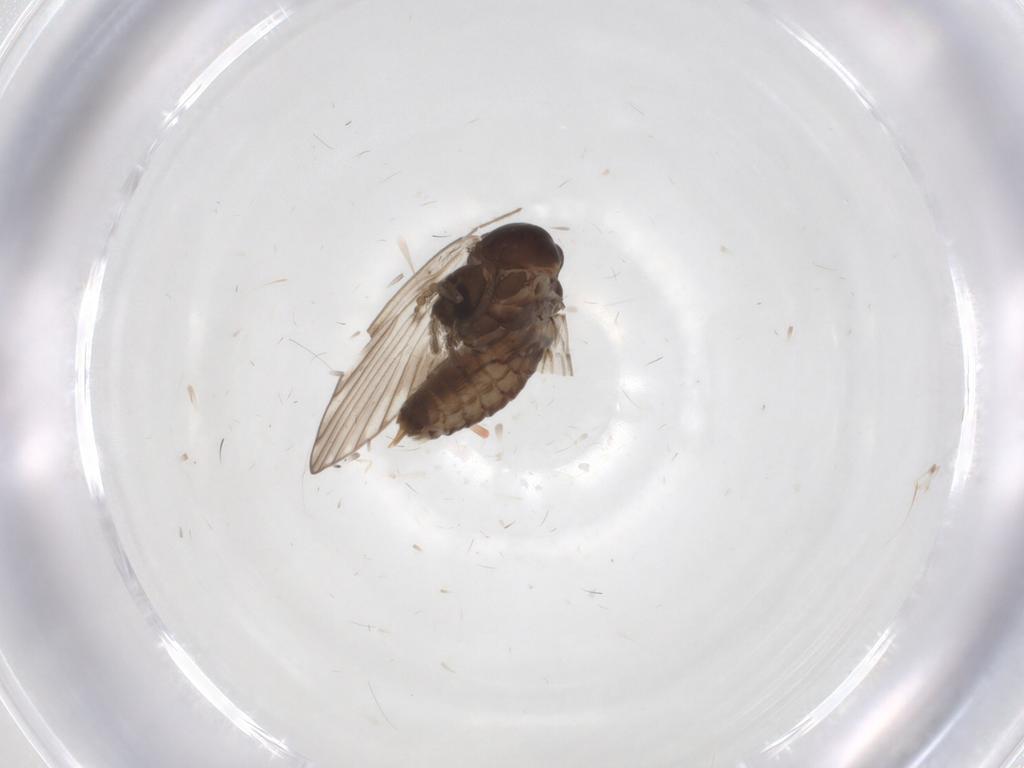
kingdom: Animalia
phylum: Arthropoda
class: Insecta
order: Diptera
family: Psychodidae
